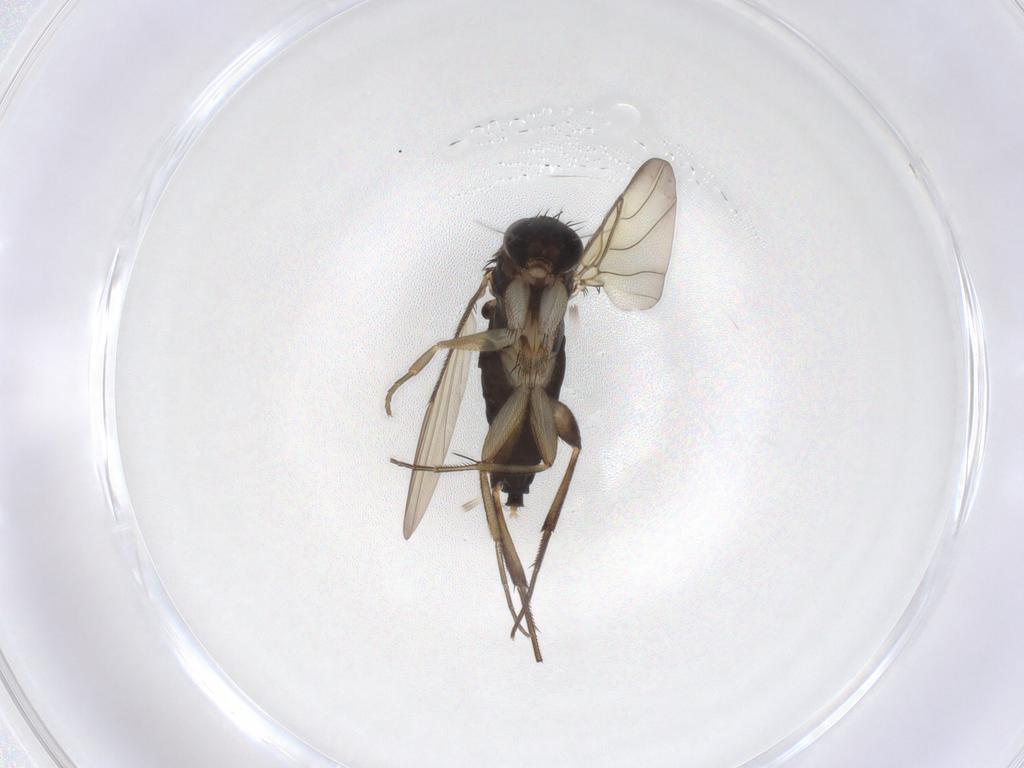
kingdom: Animalia
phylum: Arthropoda
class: Insecta
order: Diptera
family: Phoridae
